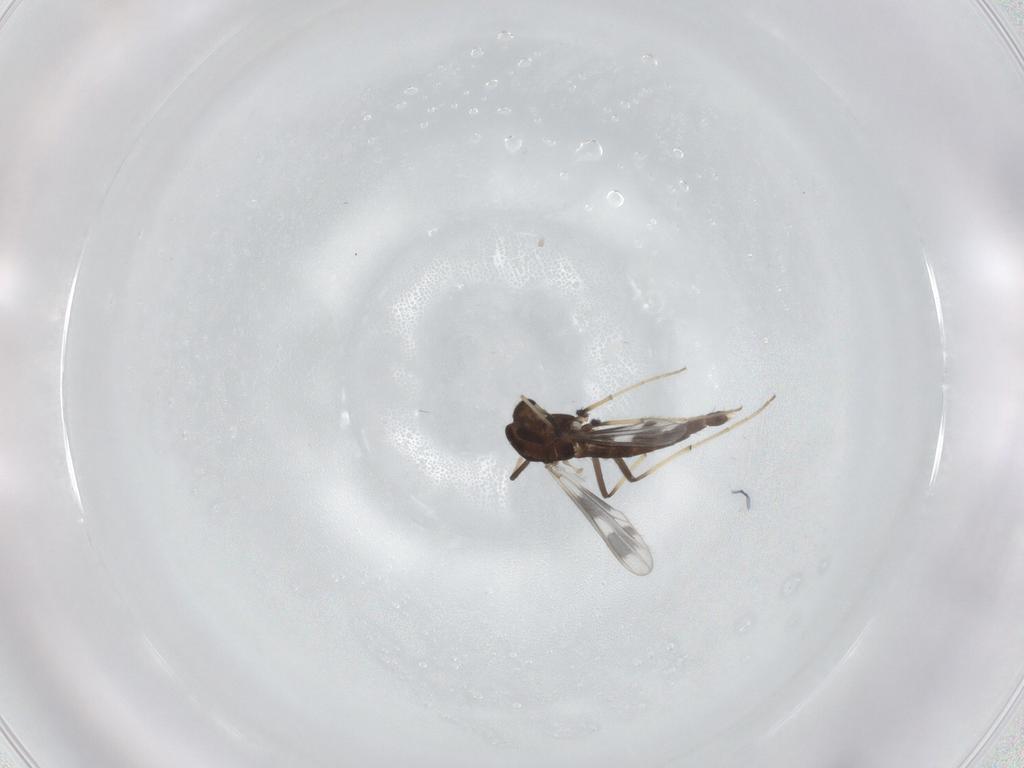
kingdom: Animalia
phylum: Arthropoda
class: Insecta
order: Diptera
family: Chironomidae
